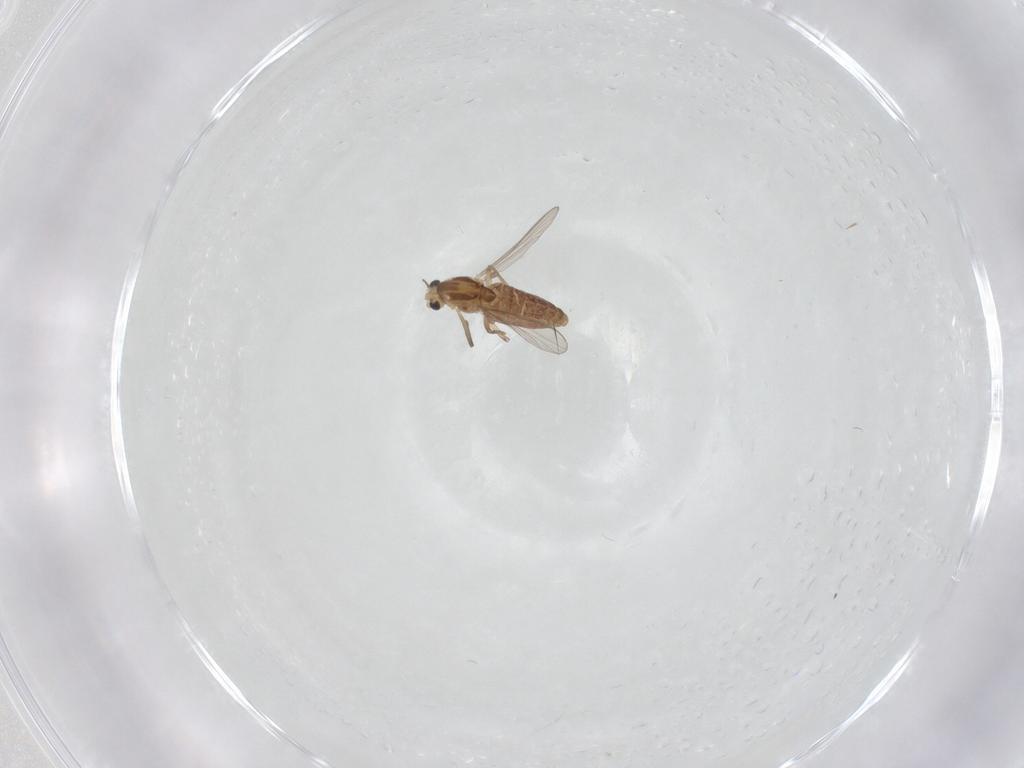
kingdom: Animalia
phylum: Arthropoda
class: Insecta
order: Diptera
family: Chironomidae
